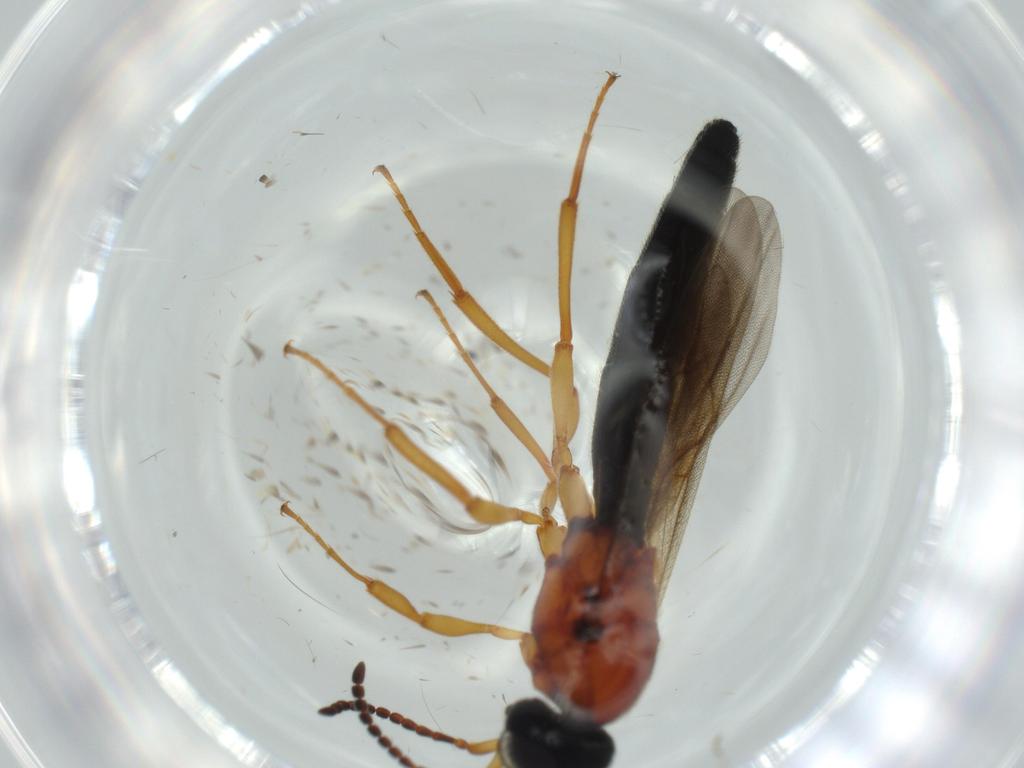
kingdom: Animalia
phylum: Arthropoda
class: Insecta
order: Hymenoptera
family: Scelionidae
